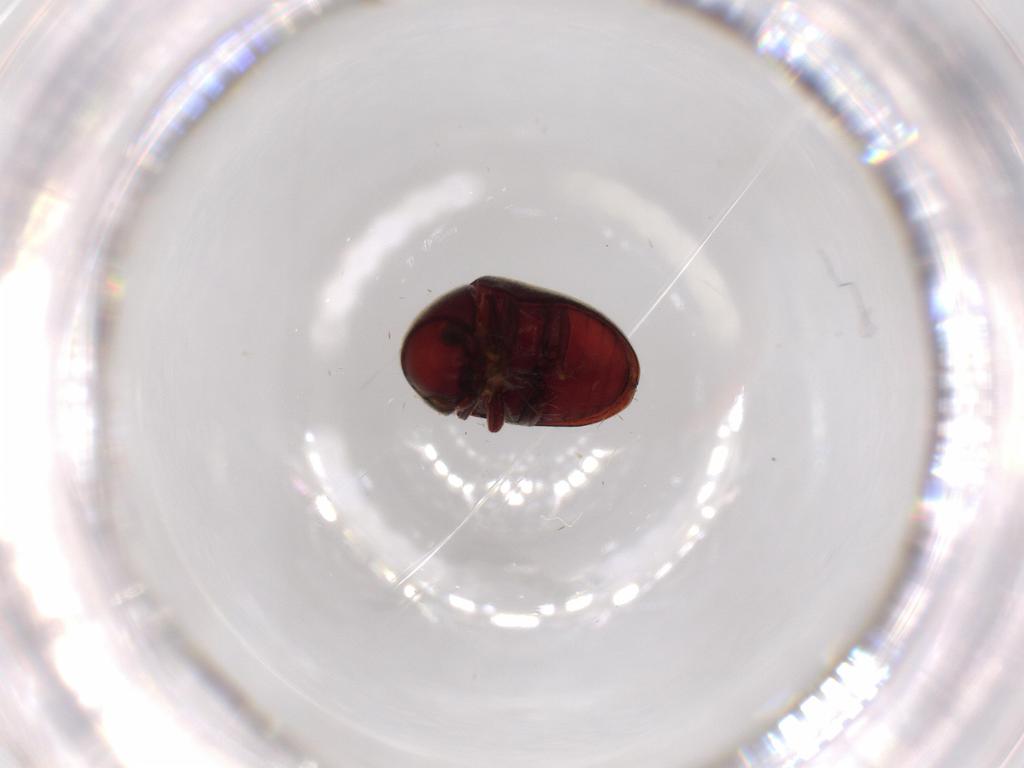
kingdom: Animalia
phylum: Arthropoda
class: Insecta
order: Coleoptera
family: Ptinidae
